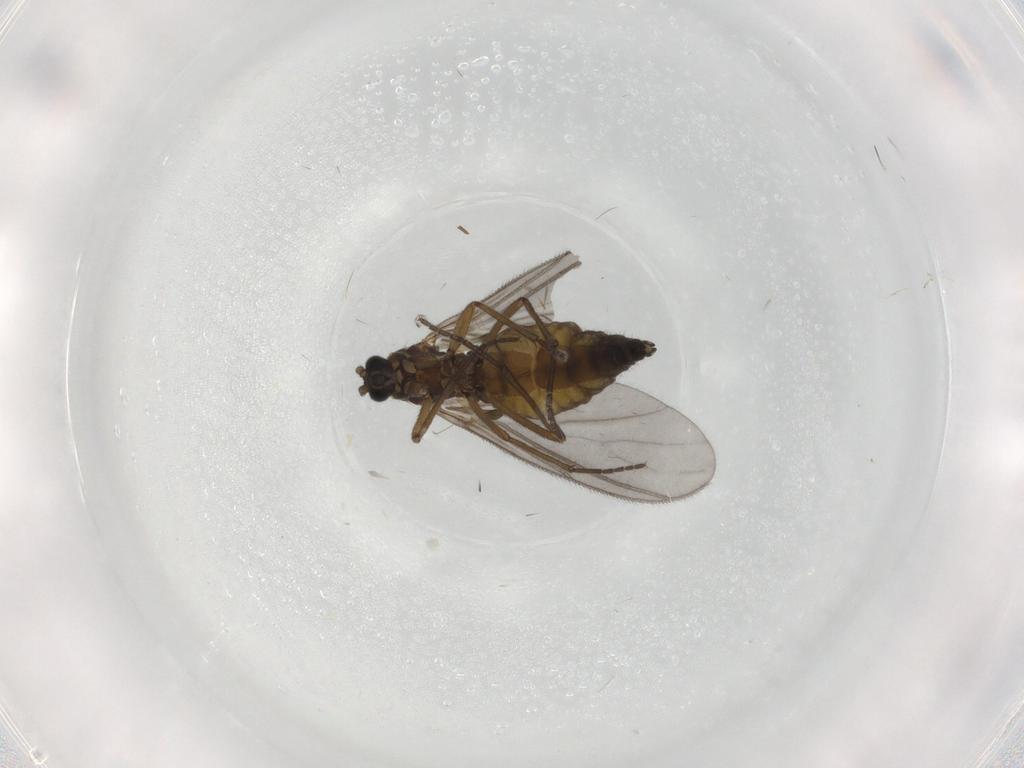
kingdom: Animalia
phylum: Arthropoda
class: Insecta
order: Diptera
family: Sciaridae
